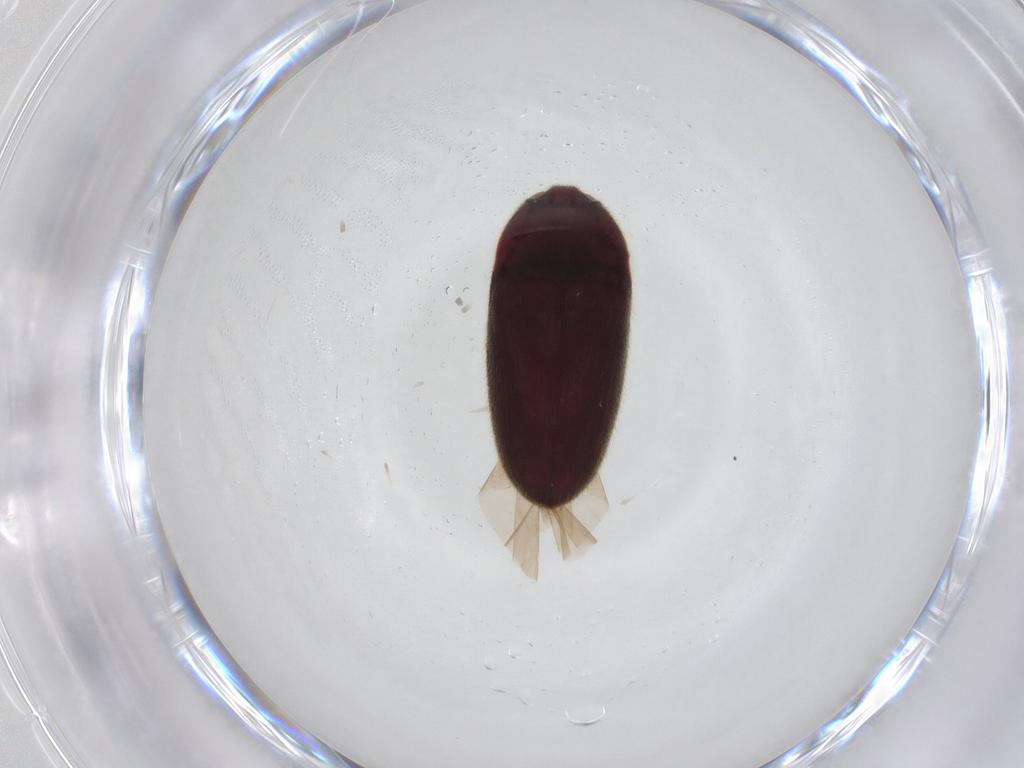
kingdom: Animalia
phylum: Arthropoda
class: Insecta
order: Coleoptera
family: Throscidae
